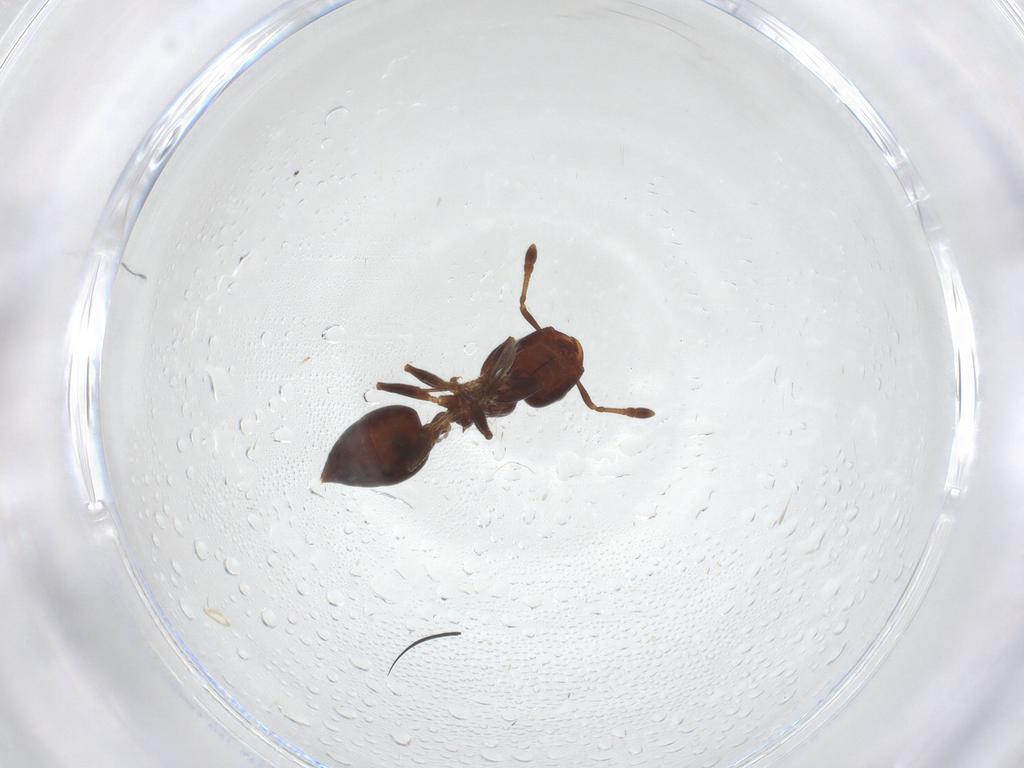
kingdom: Animalia
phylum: Arthropoda
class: Insecta
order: Hymenoptera
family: Formicidae
